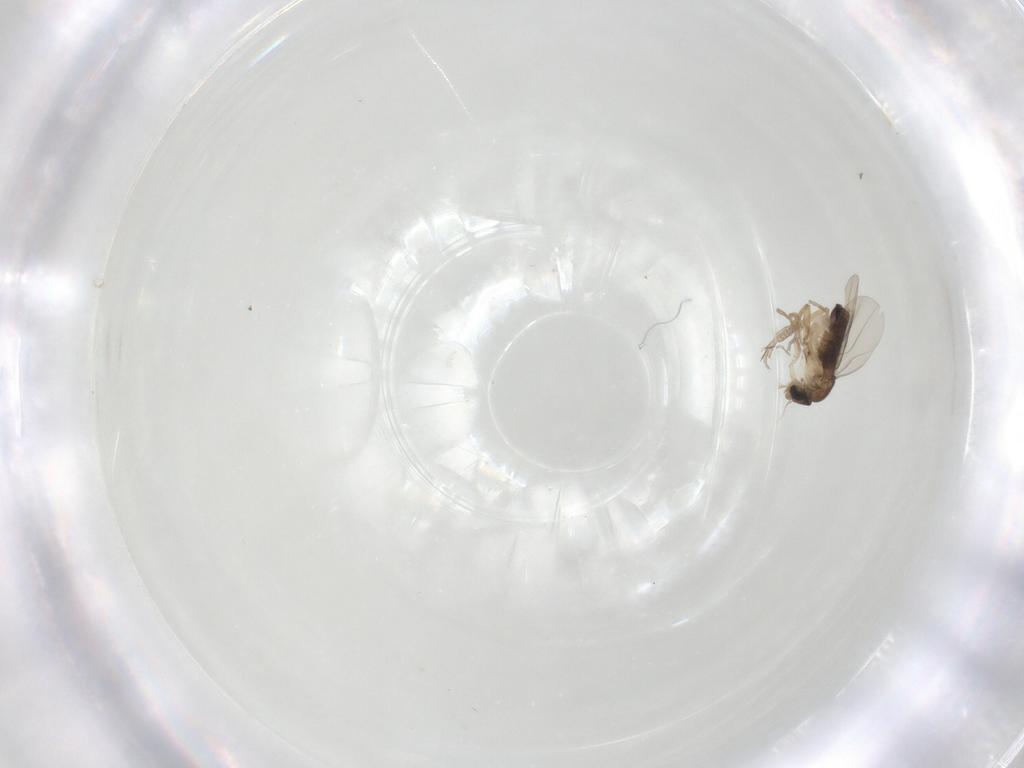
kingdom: Animalia
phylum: Arthropoda
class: Insecta
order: Diptera
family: Phoridae
